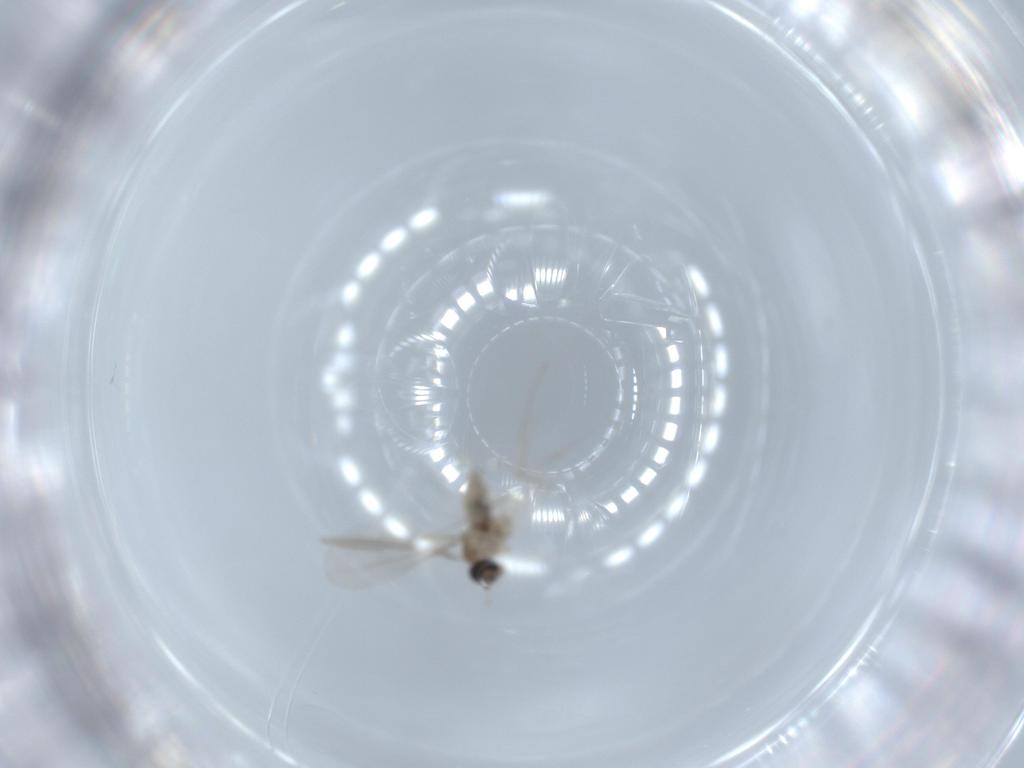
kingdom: Animalia
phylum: Arthropoda
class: Insecta
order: Diptera
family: Cecidomyiidae
